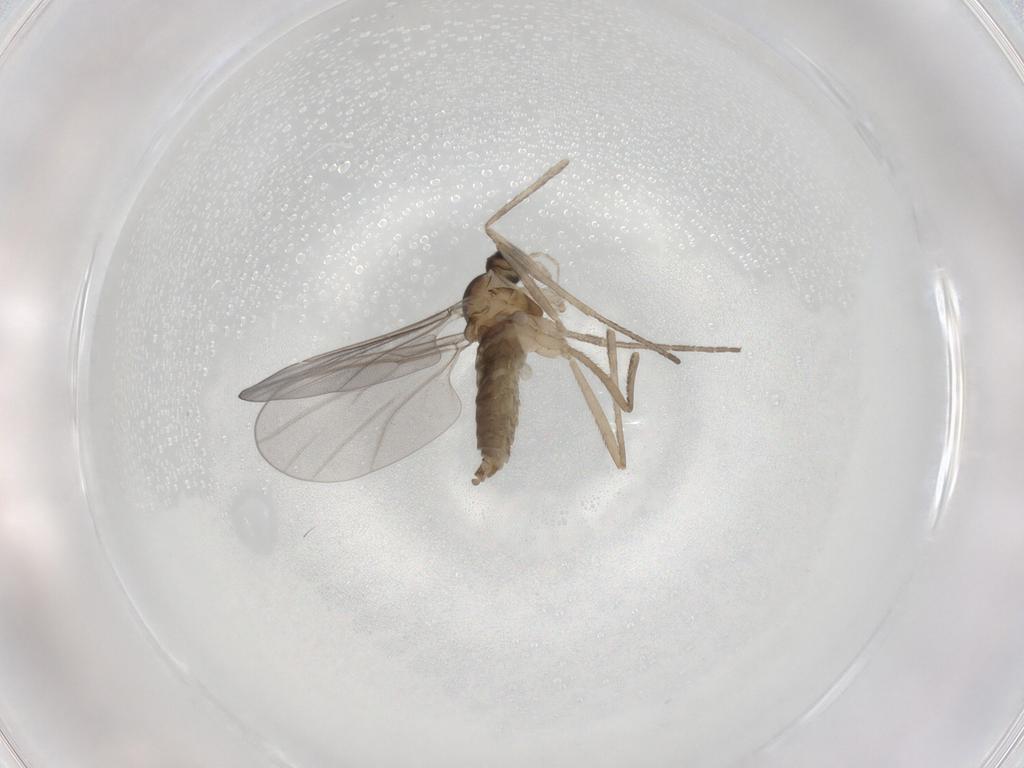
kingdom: Animalia
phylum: Arthropoda
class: Insecta
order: Diptera
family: Cecidomyiidae
